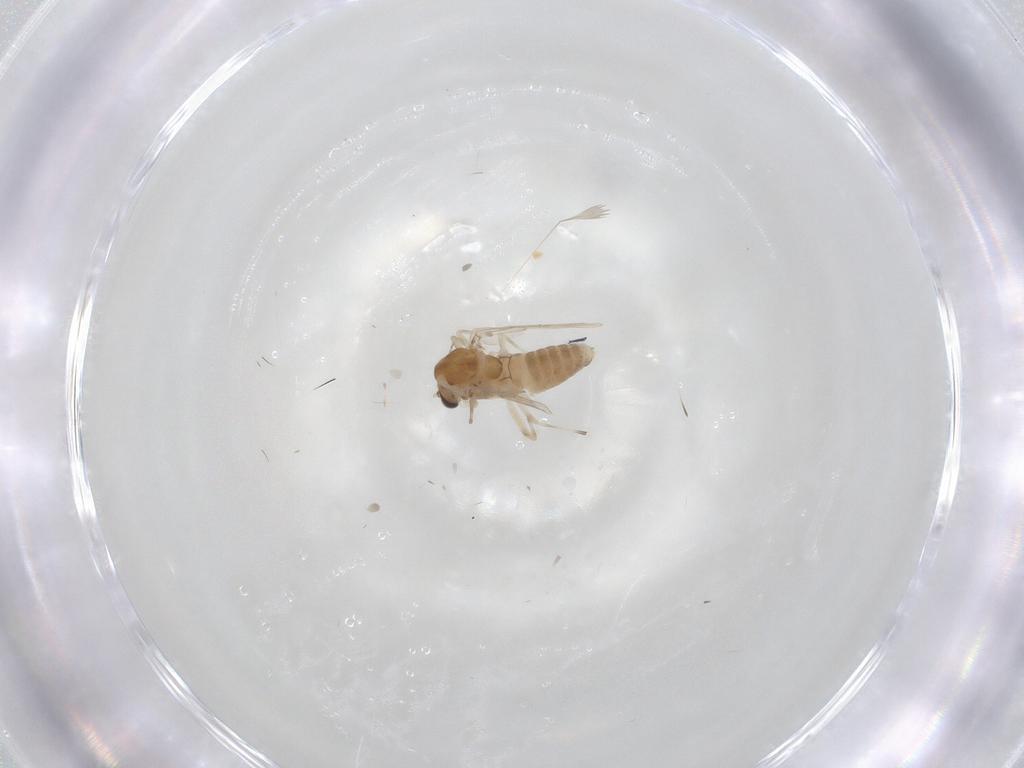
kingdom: Animalia
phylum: Arthropoda
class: Insecta
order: Diptera
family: Chironomidae
